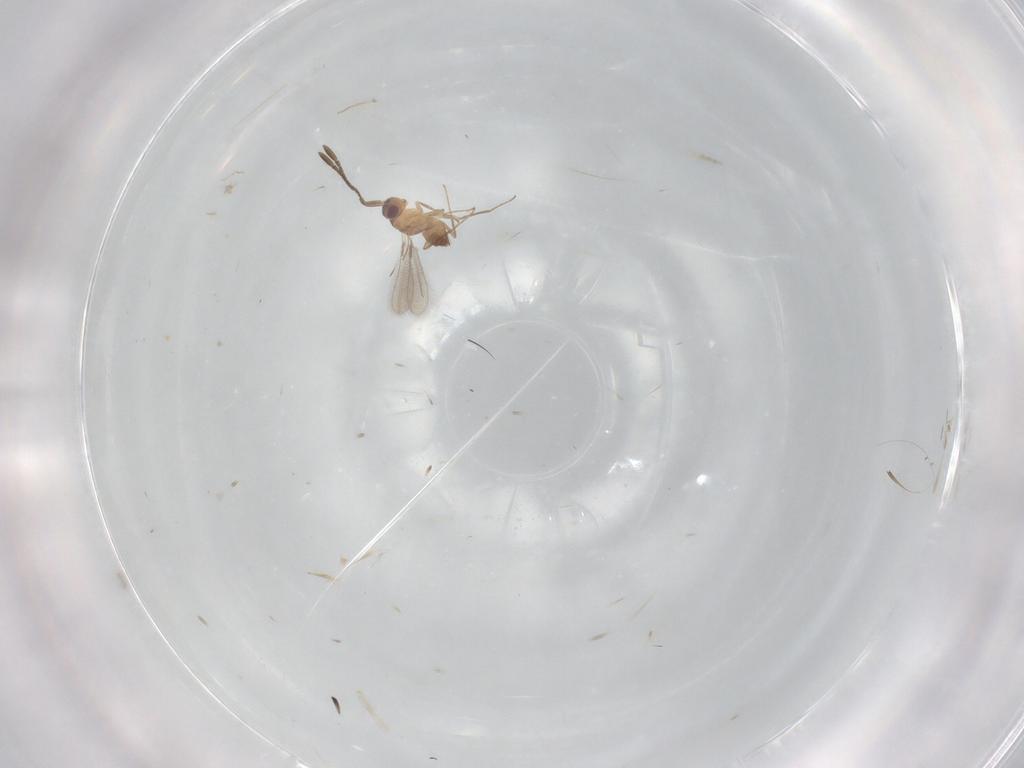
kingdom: Animalia
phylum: Arthropoda
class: Insecta
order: Hymenoptera
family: Mymaridae
